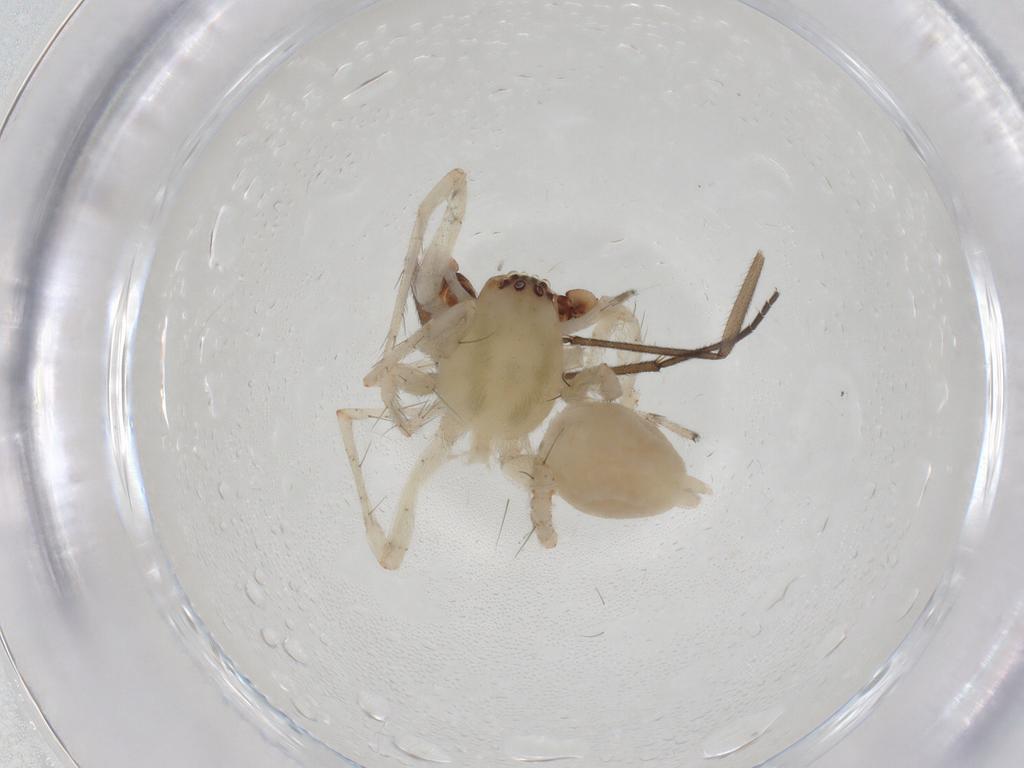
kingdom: Animalia
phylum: Arthropoda
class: Arachnida
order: Araneae
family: Anyphaenidae
